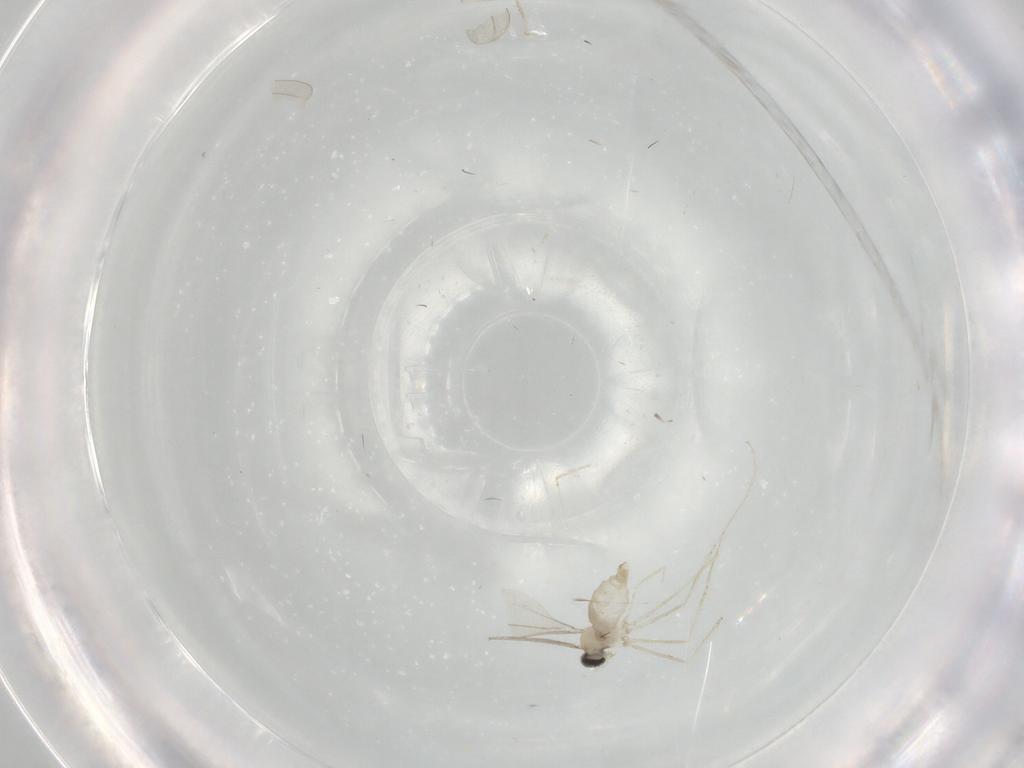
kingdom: Animalia
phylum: Arthropoda
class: Insecta
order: Diptera
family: Cecidomyiidae
